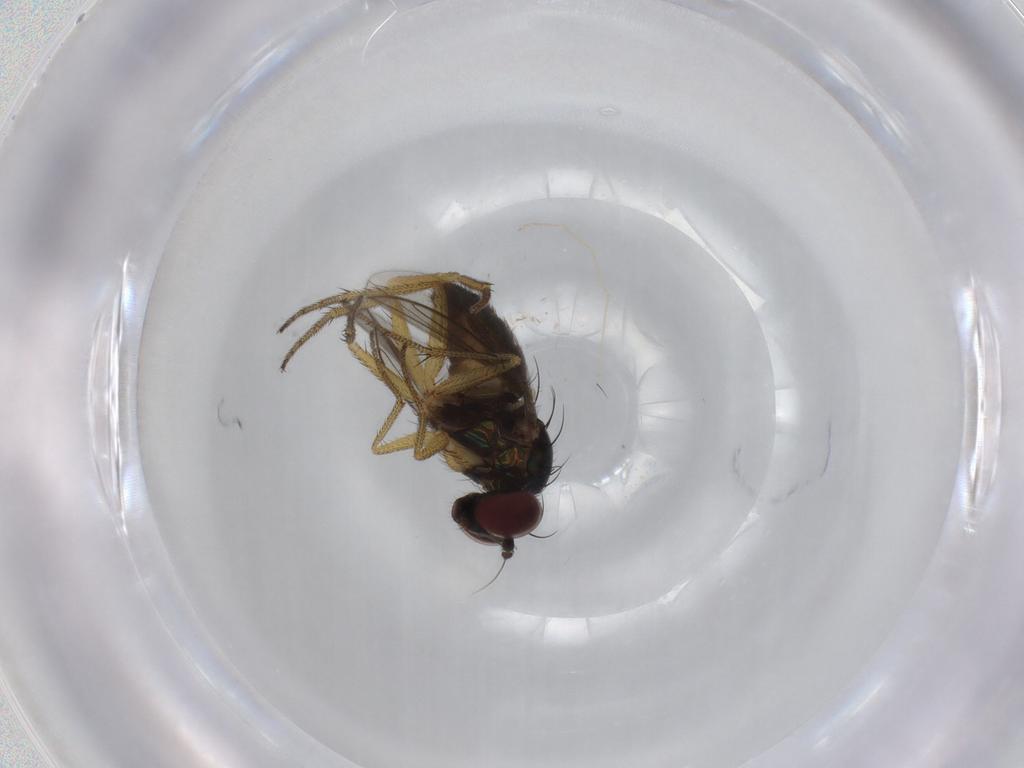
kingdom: Animalia
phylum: Arthropoda
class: Insecta
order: Diptera
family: Dolichopodidae
